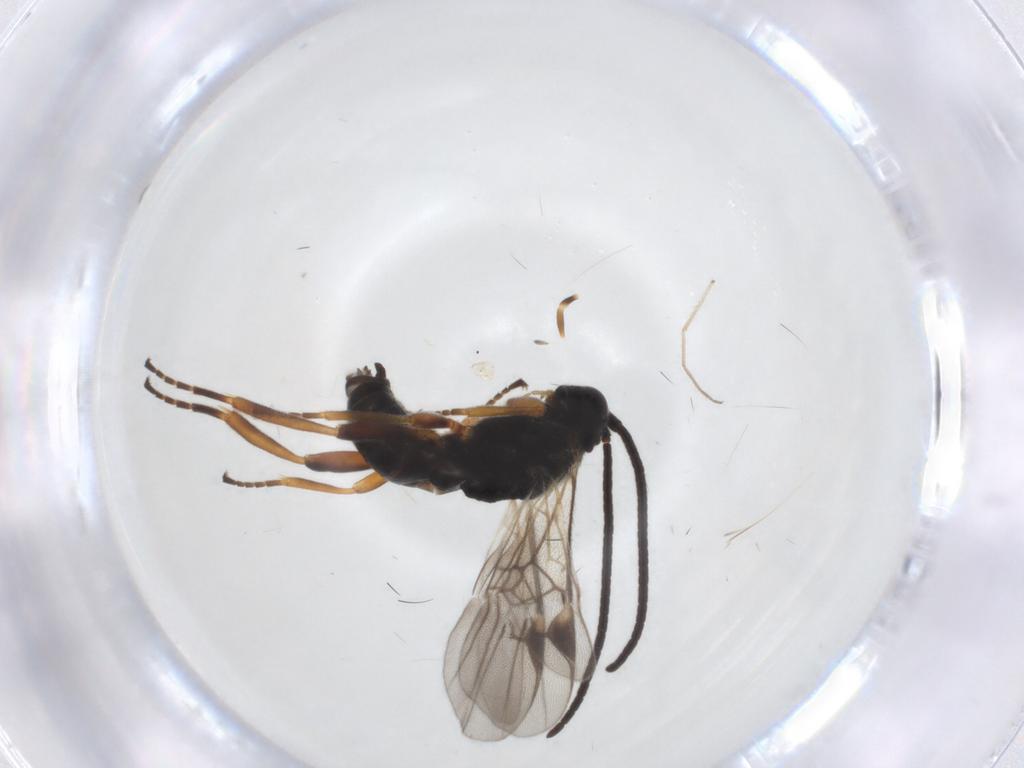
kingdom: Animalia
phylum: Arthropoda
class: Insecta
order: Hymenoptera
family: Braconidae
